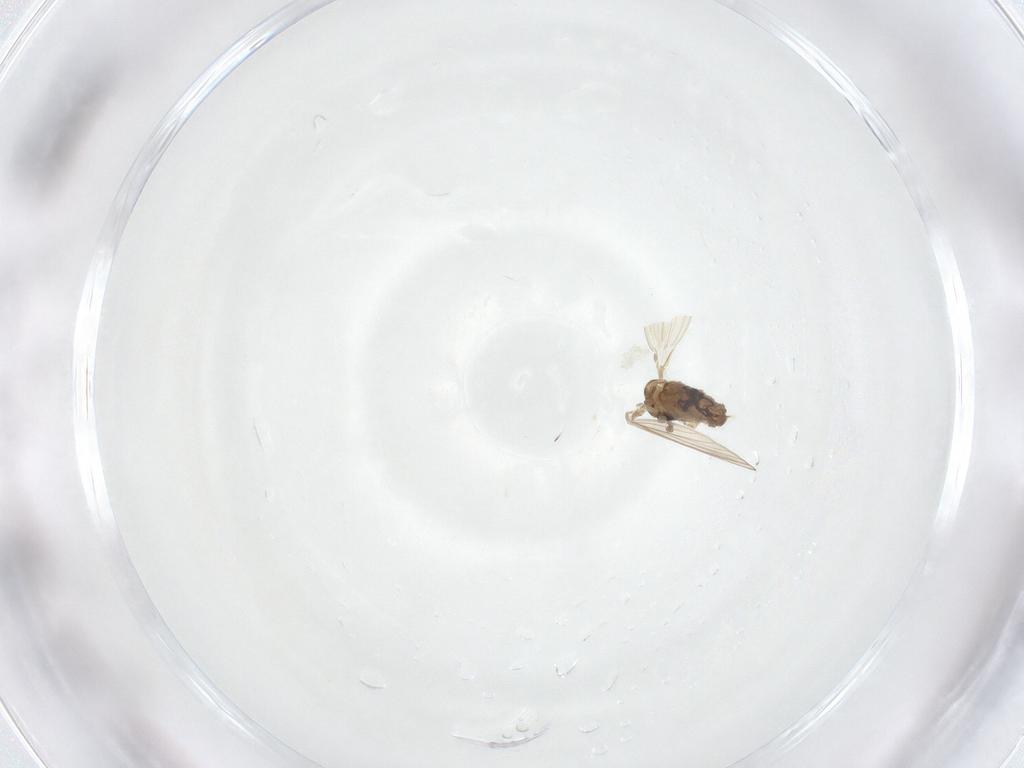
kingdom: Animalia
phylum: Arthropoda
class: Insecta
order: Diptera
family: Psychodidae
